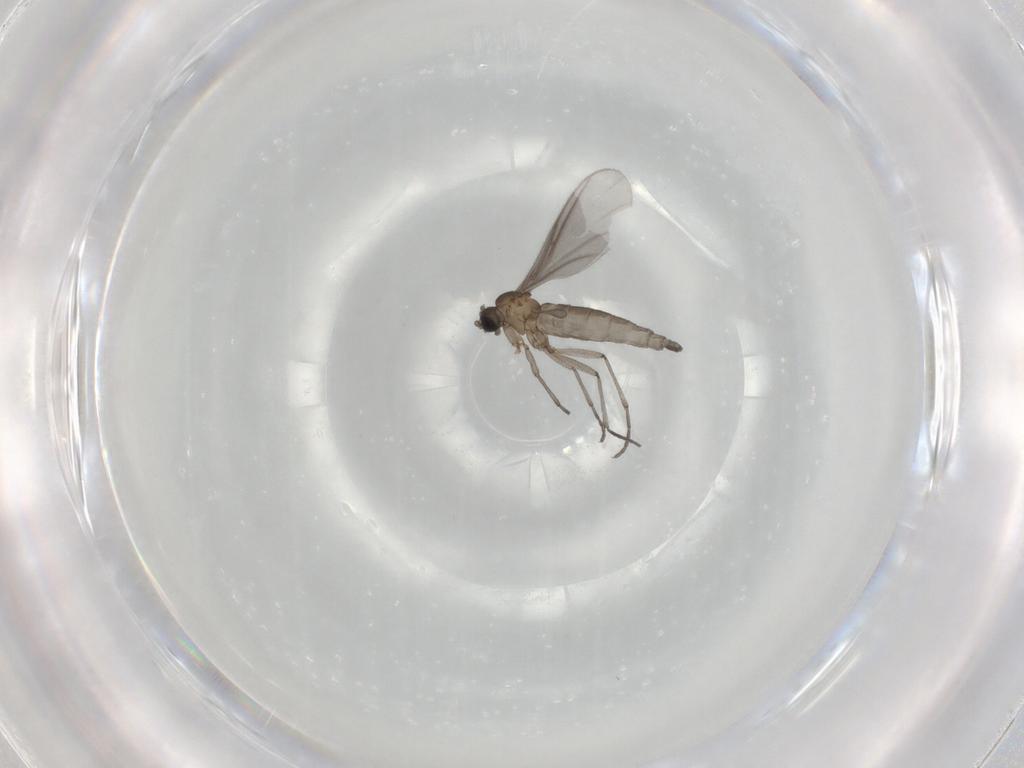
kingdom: Animalia
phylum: Arthropoda
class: Insecta
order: Diptera
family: Sciaridae
